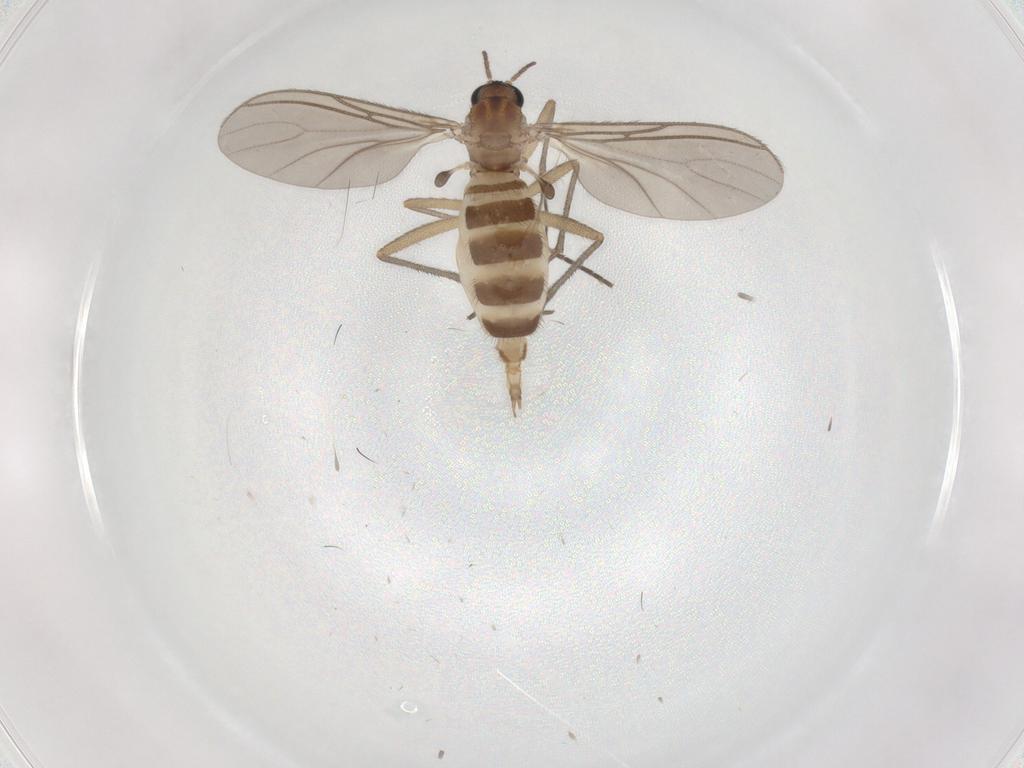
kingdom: Animalia
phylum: Arthropoda
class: Insecta
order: Diptera
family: Sciaridae
